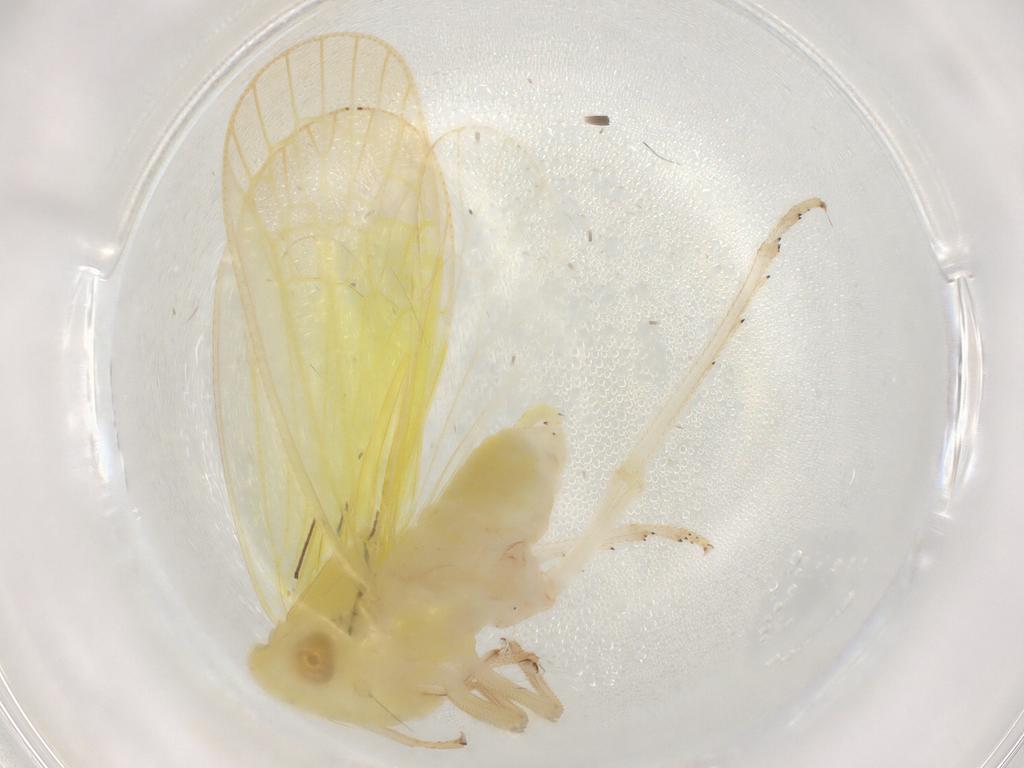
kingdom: Animalia
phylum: Arthropoda
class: Insecta
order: Hemiptera
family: Tropiduchidae
